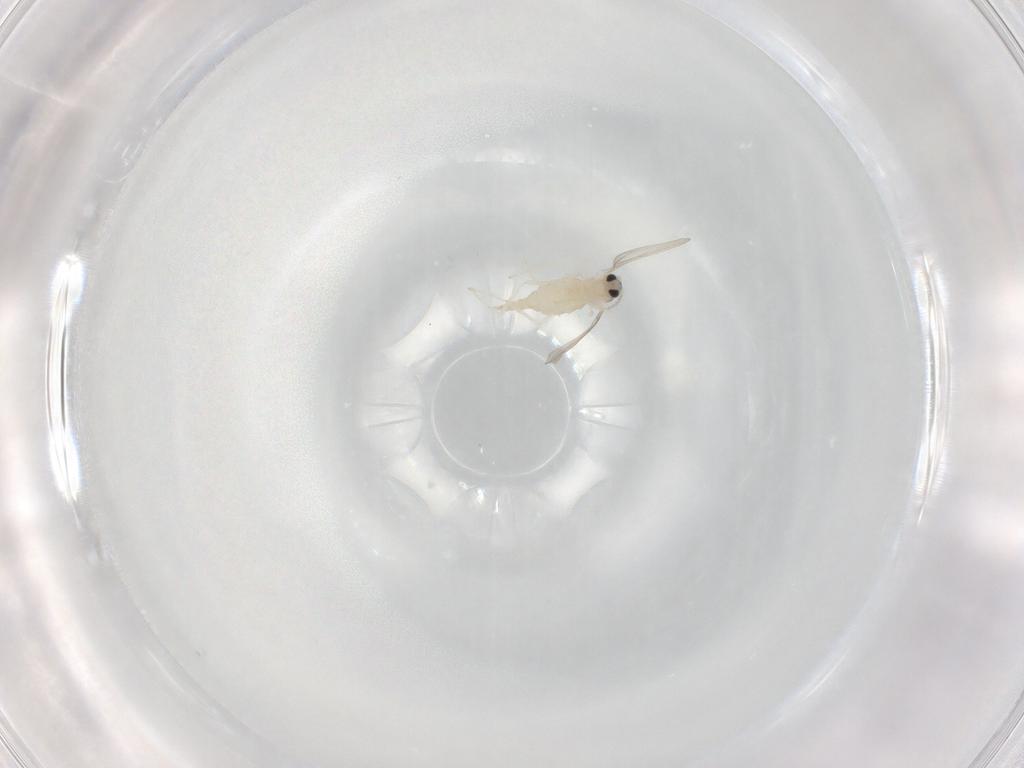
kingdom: Animalia
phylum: Arthropoda
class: Insecta
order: Diptera
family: Cecidomyiidae
